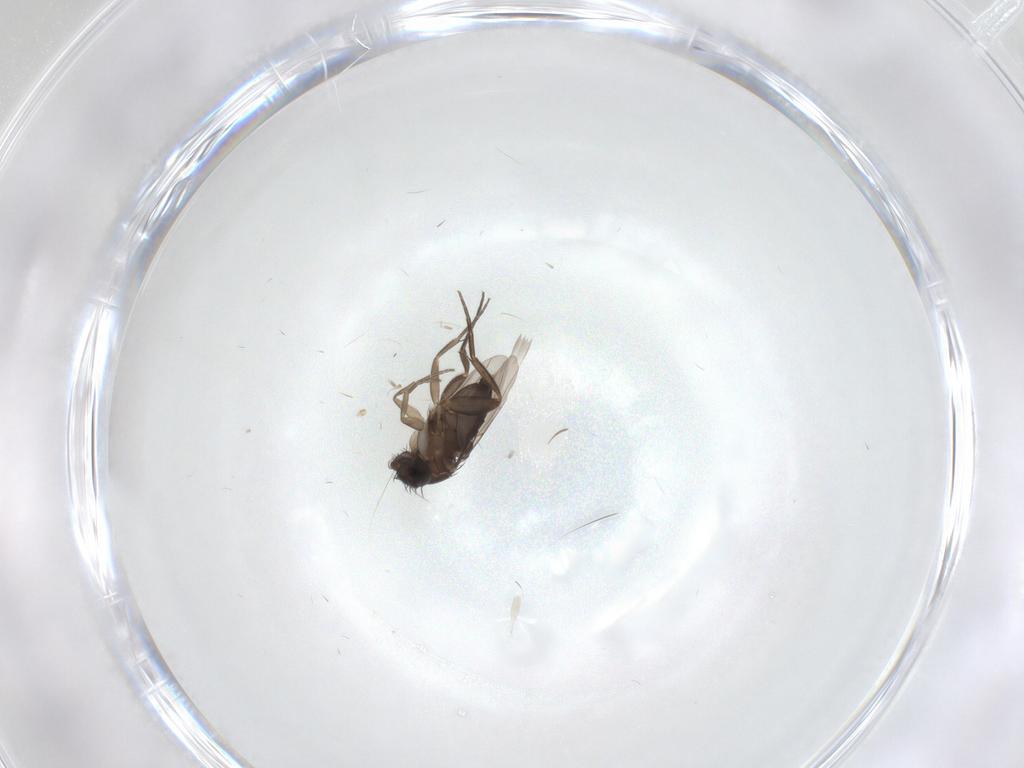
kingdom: Animalia
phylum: Arthropoda
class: Insecta
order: Diptera
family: Phoridae
